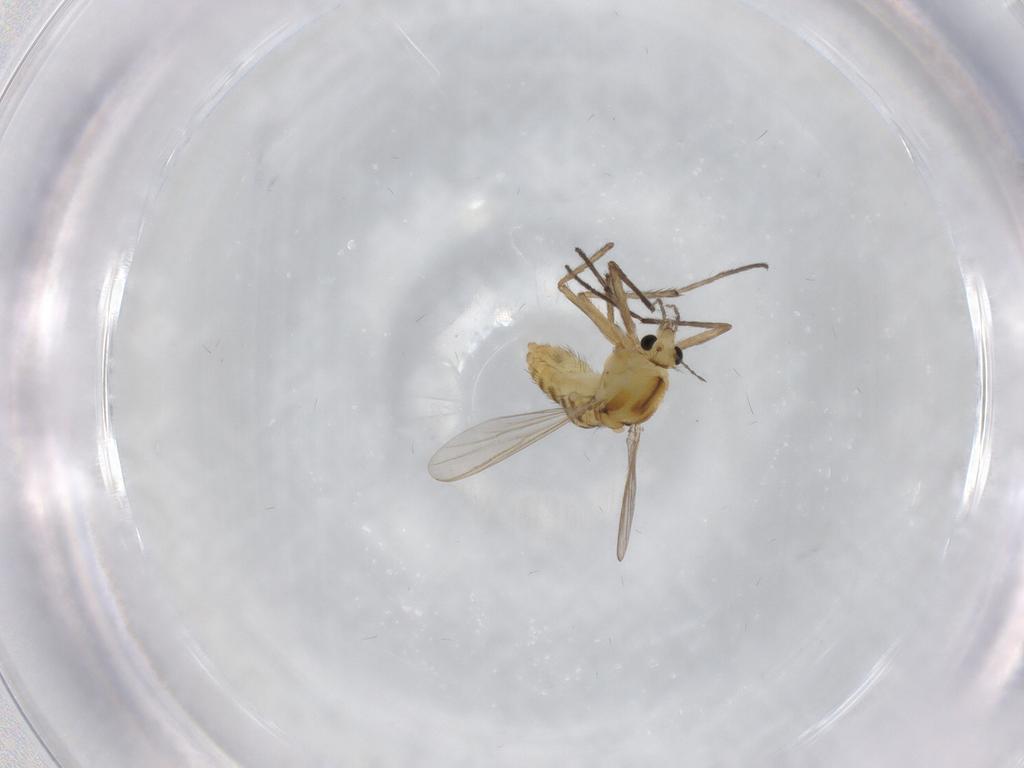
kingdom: Animalia
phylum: Arthropoda
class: Insecta
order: Diptera
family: Chironomidae
